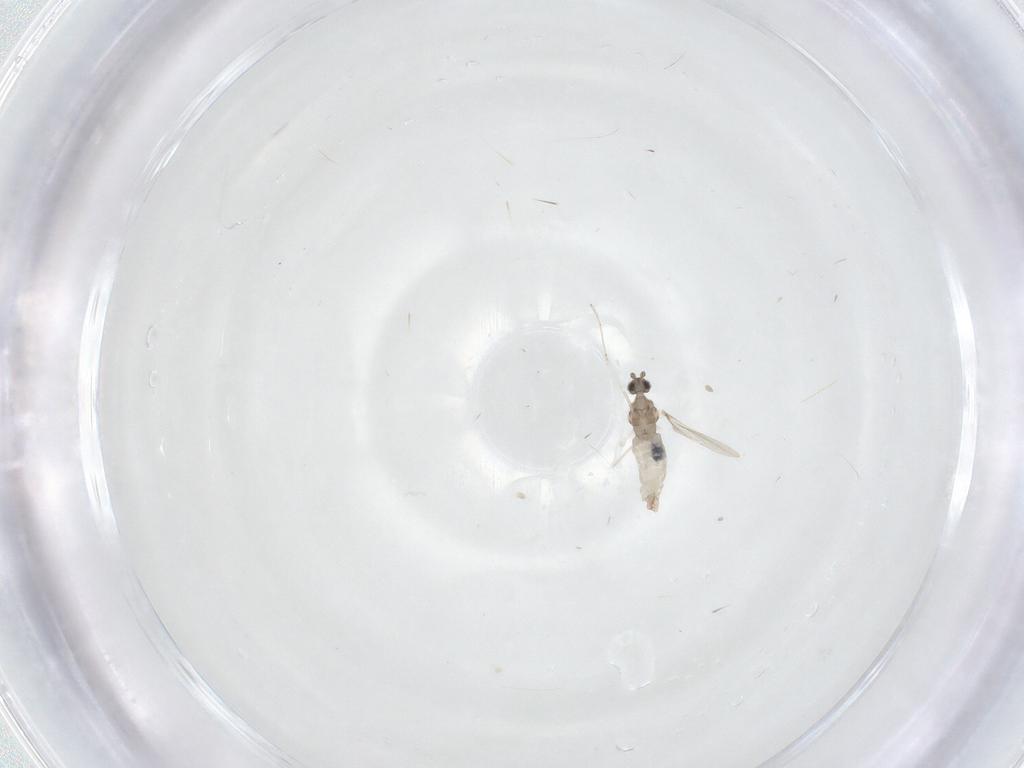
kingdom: Animalia
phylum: Arthropoda
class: Insecta
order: Diptera
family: Cecidomyiidae
